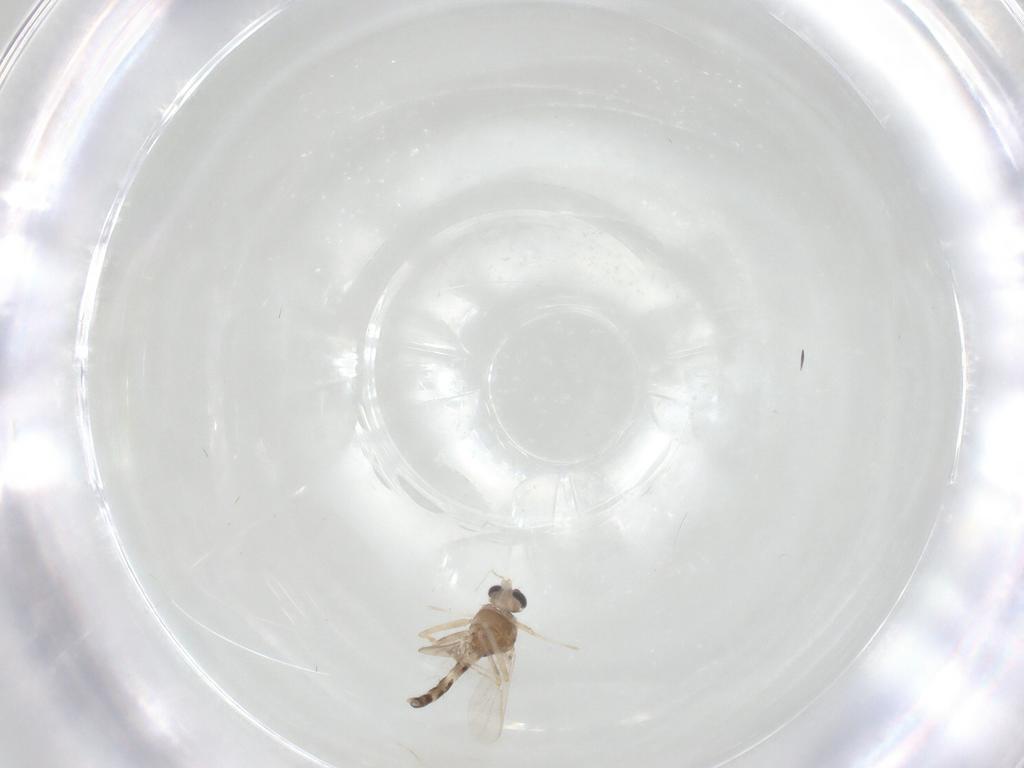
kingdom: Animalia
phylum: Arthropoda
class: Insecta
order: Diptera
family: Chironomidae
